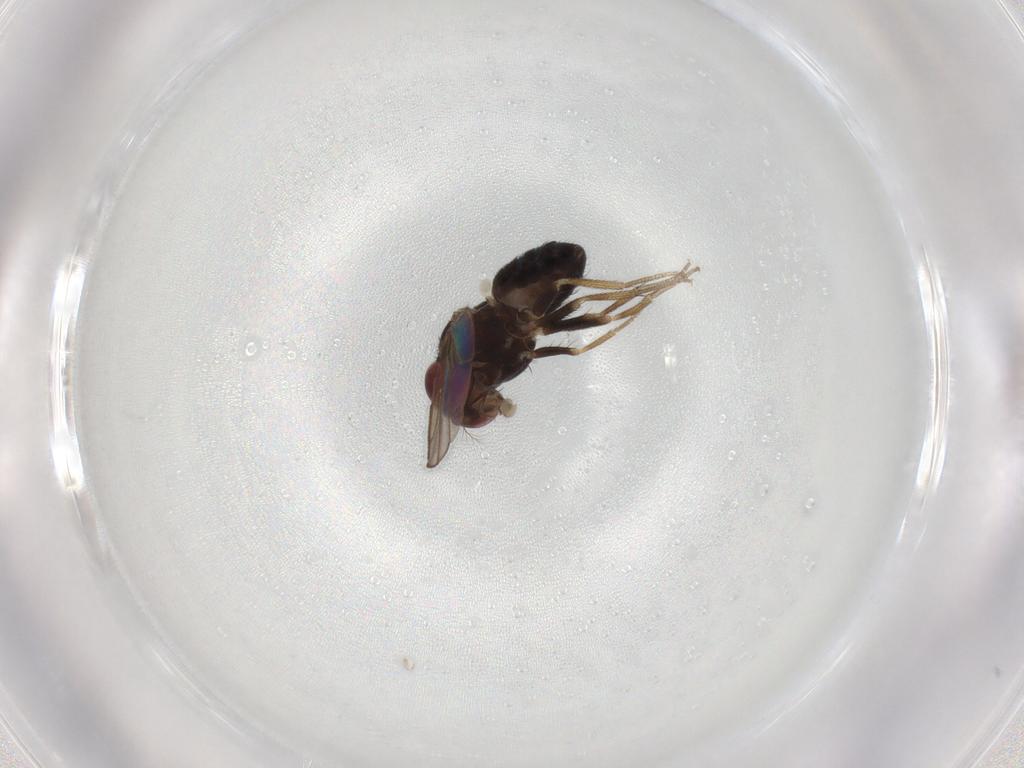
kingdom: Animalia
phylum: Arthropoda
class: Insecta
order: Diptera
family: Drosophilidae
